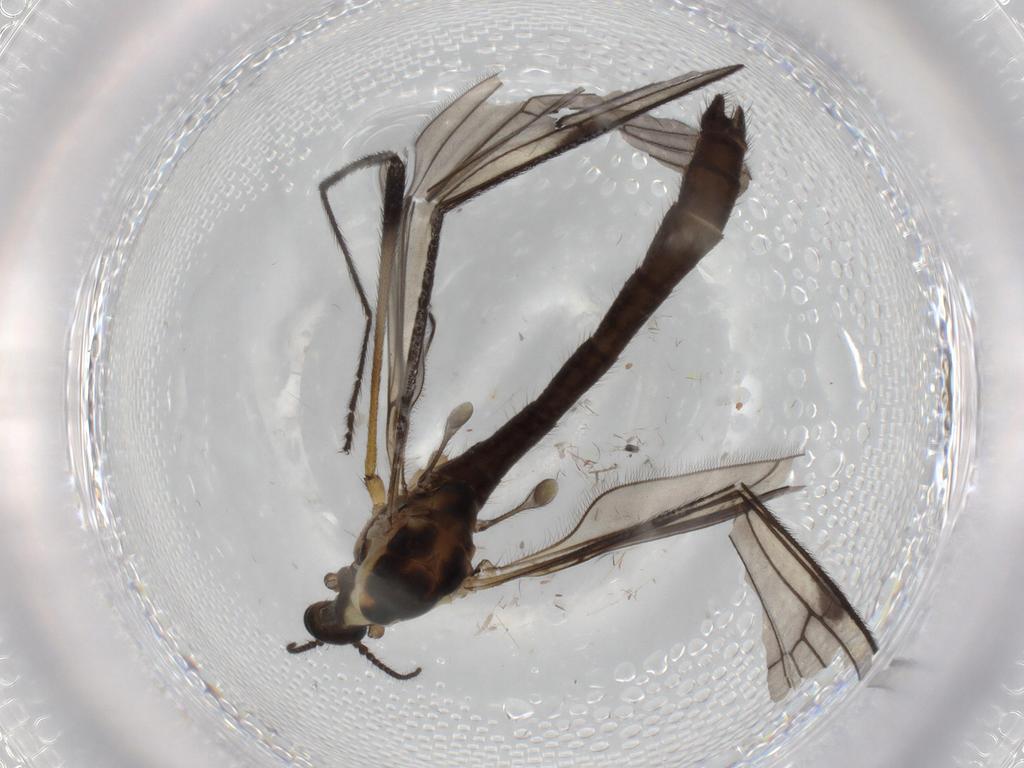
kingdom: Animalia
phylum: Arthropoda
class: Insecta
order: Diptera
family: Limoniidae
